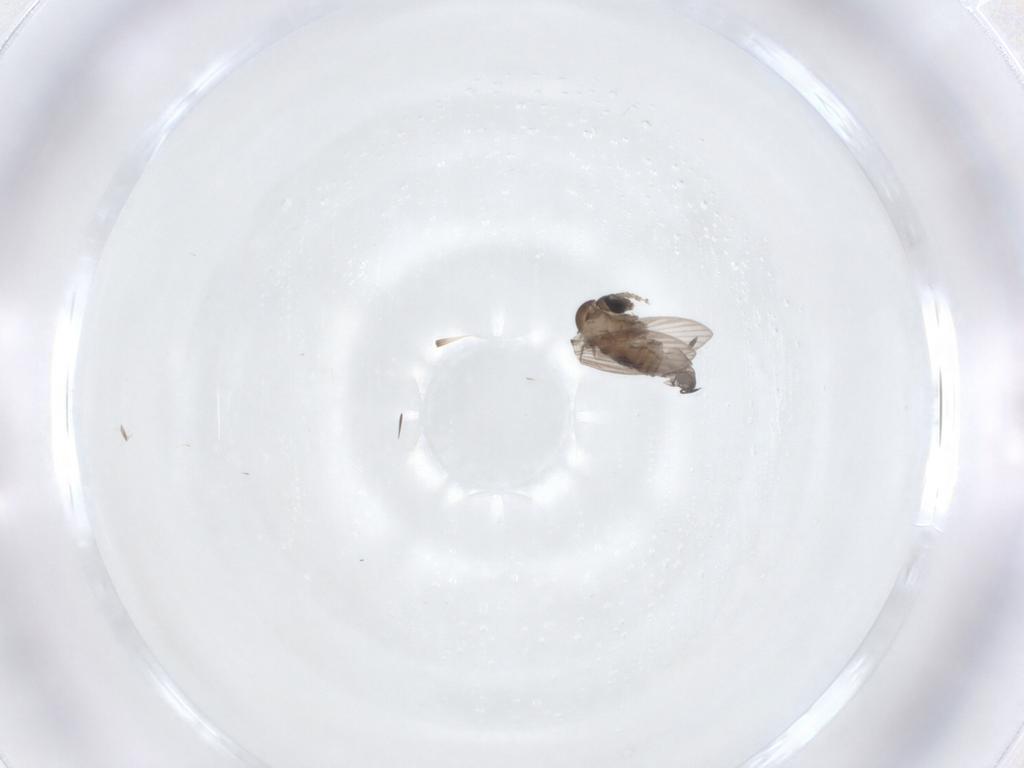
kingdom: Animalia
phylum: Arthropoda
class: Insecta
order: Diptera
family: Psychodidae
